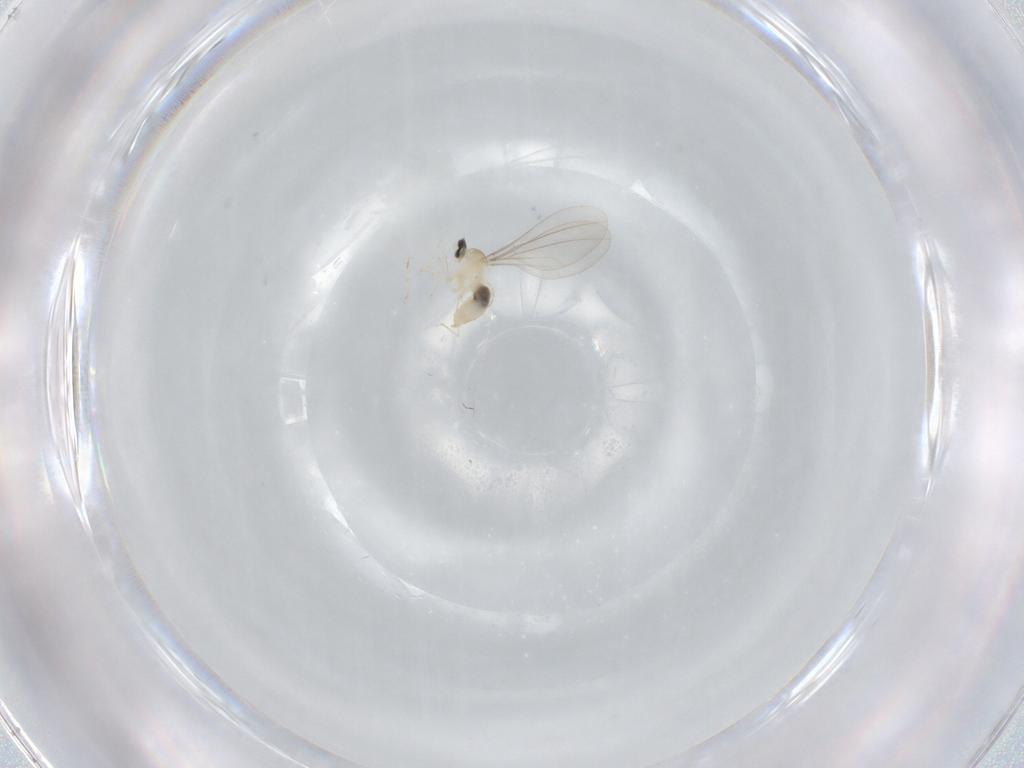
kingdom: Animalia
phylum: Arthropoda
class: Insecta
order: Diptera
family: Cecidomyiidae
